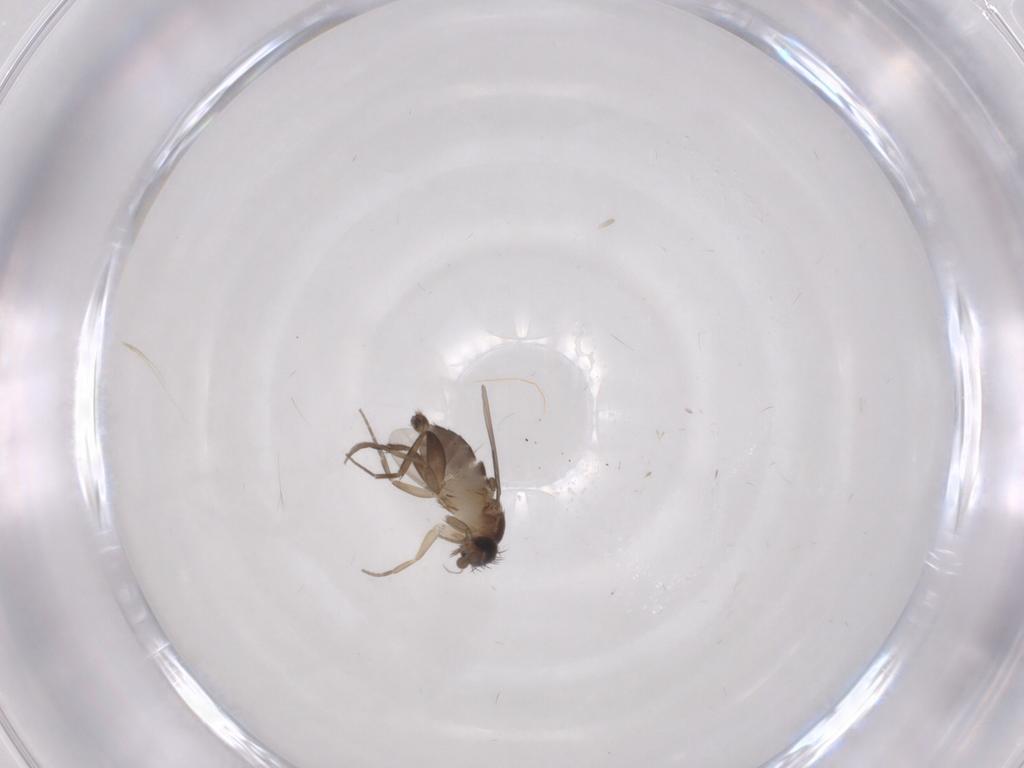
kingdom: Animalia
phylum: Arthropoda
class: Insecta
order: Diptera
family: Phoridae
